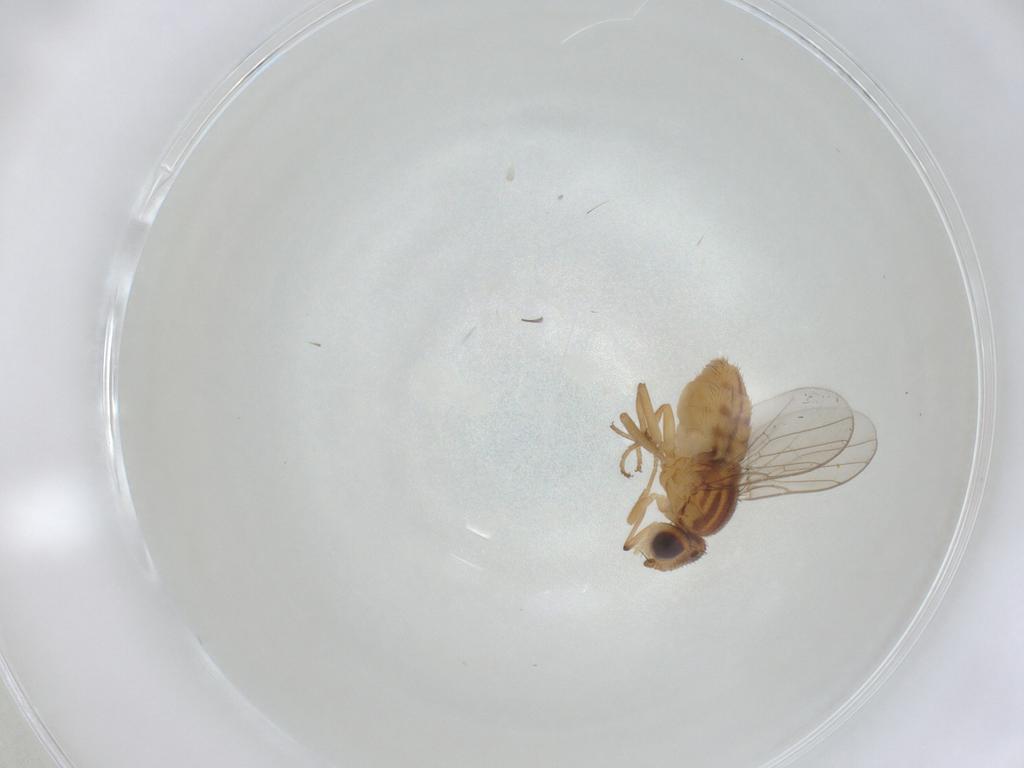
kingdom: Animalia
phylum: Arthropoda
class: Insecta
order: Diptera
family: Chloropidae
